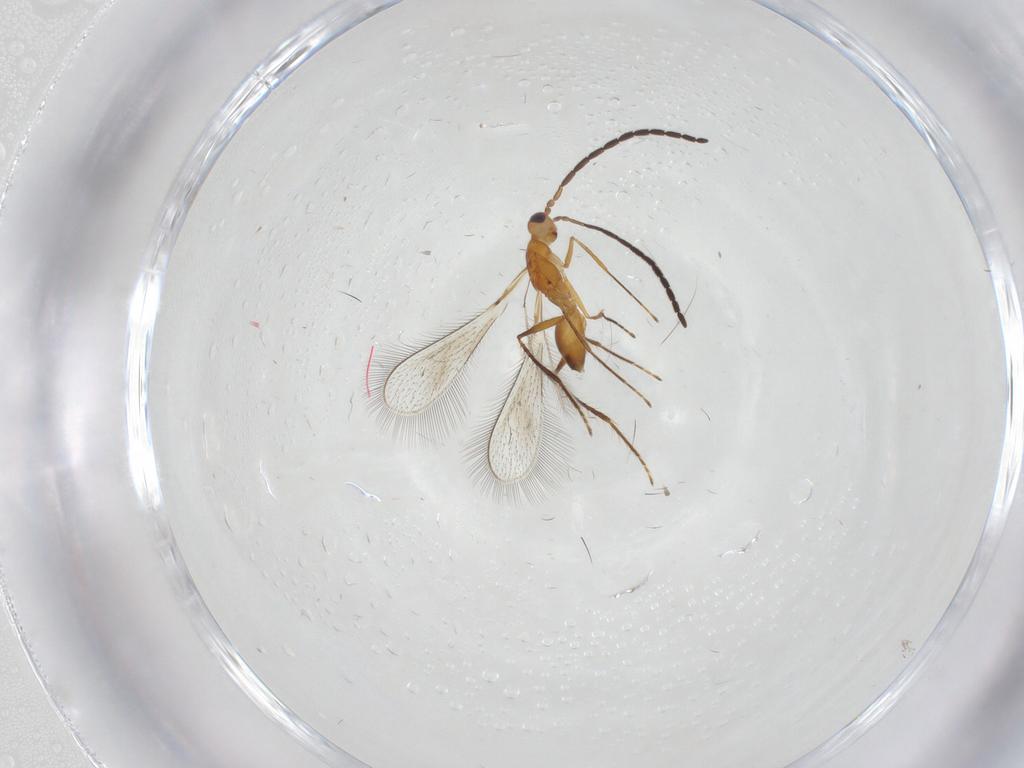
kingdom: Animalia
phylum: Arthropoda
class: Insecta
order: Hymenoptera
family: Mymaridae
